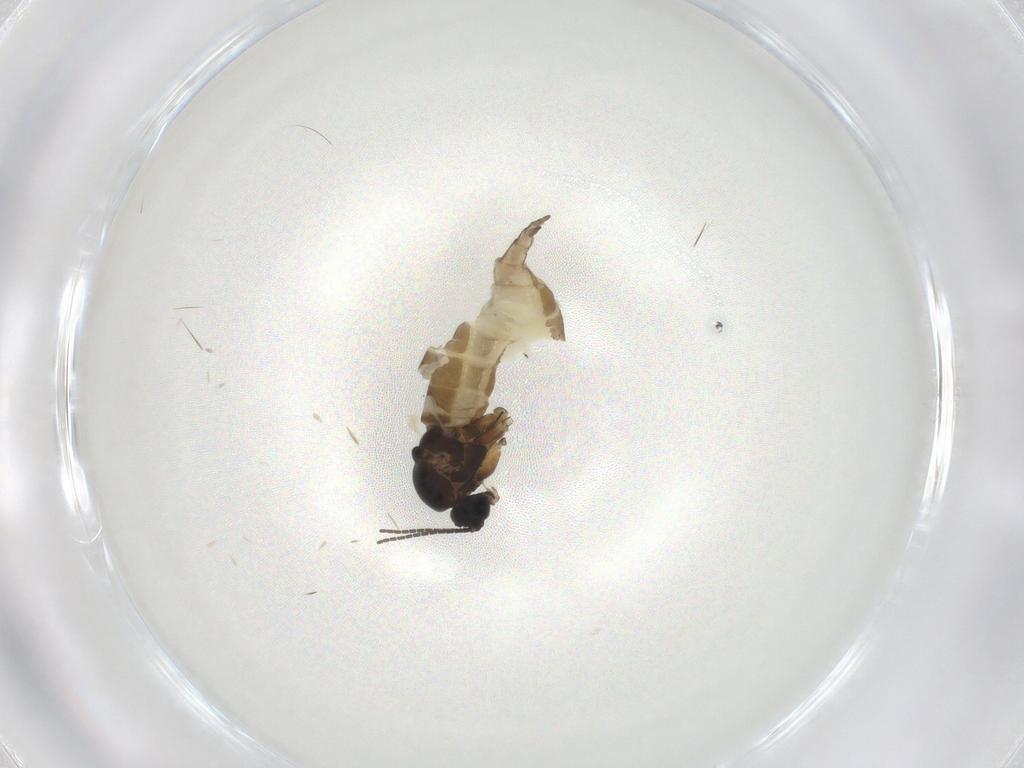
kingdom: Animalia
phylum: Arthropoda
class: Insecta
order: Diptera
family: Sciaridae
